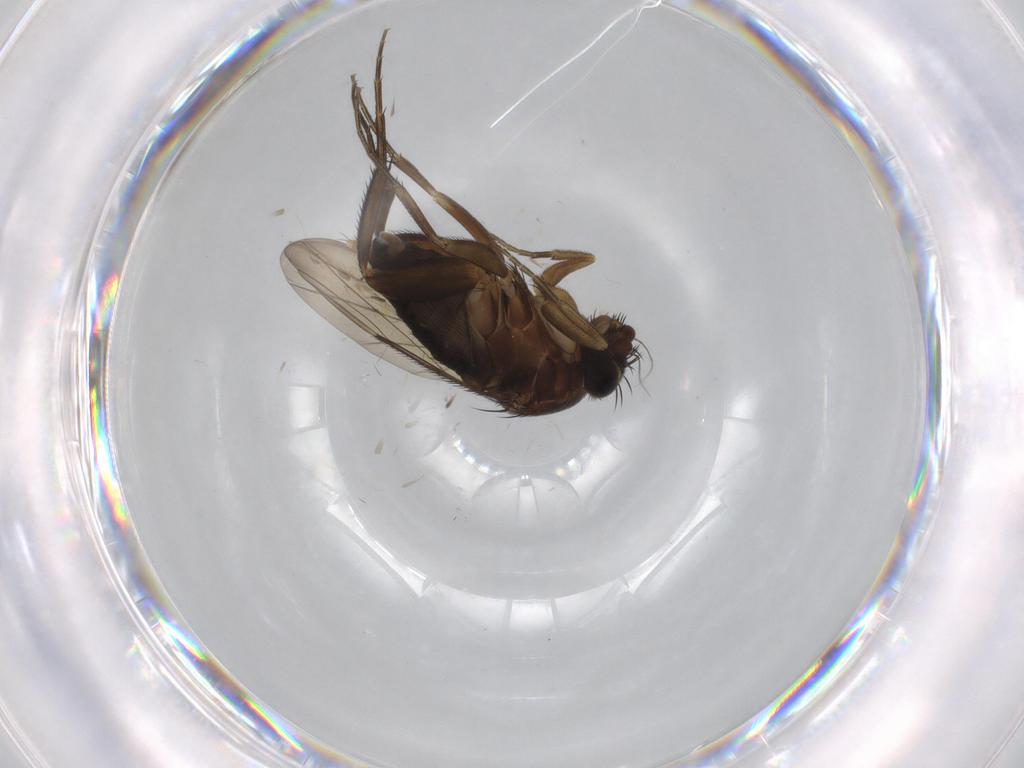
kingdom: Animalia
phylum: Arthropoda
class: Insecta
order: Diptera
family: Phoridae
